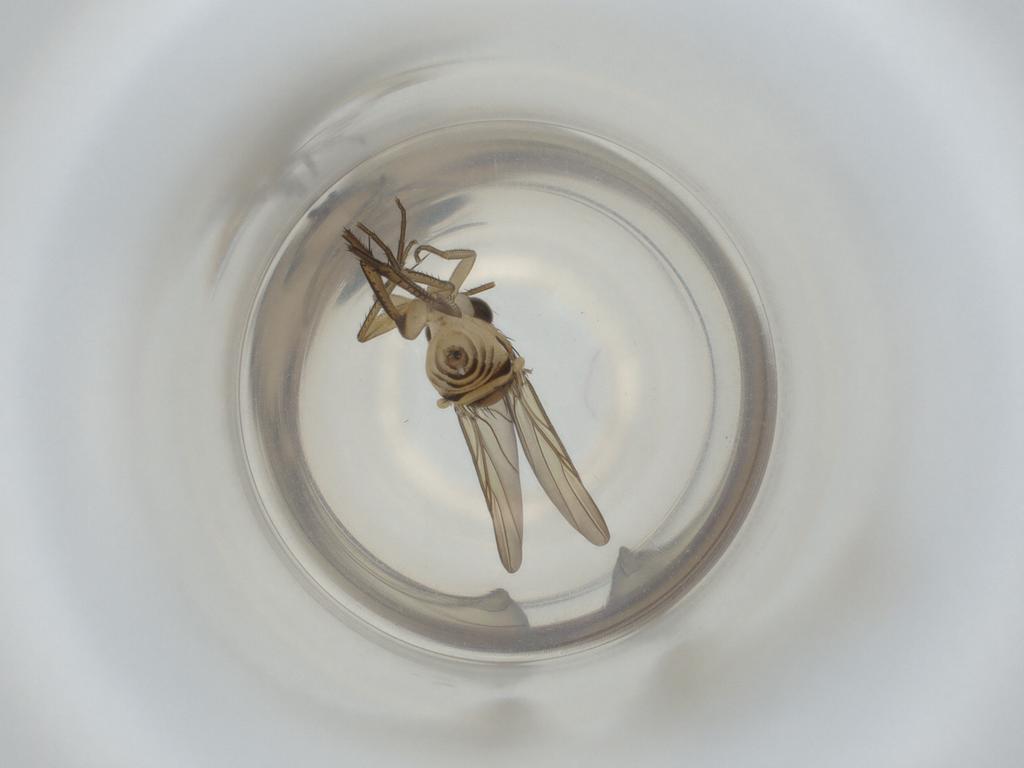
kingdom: Animalia
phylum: Arthropoda
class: Insecta
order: Diptera
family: Phoridae
